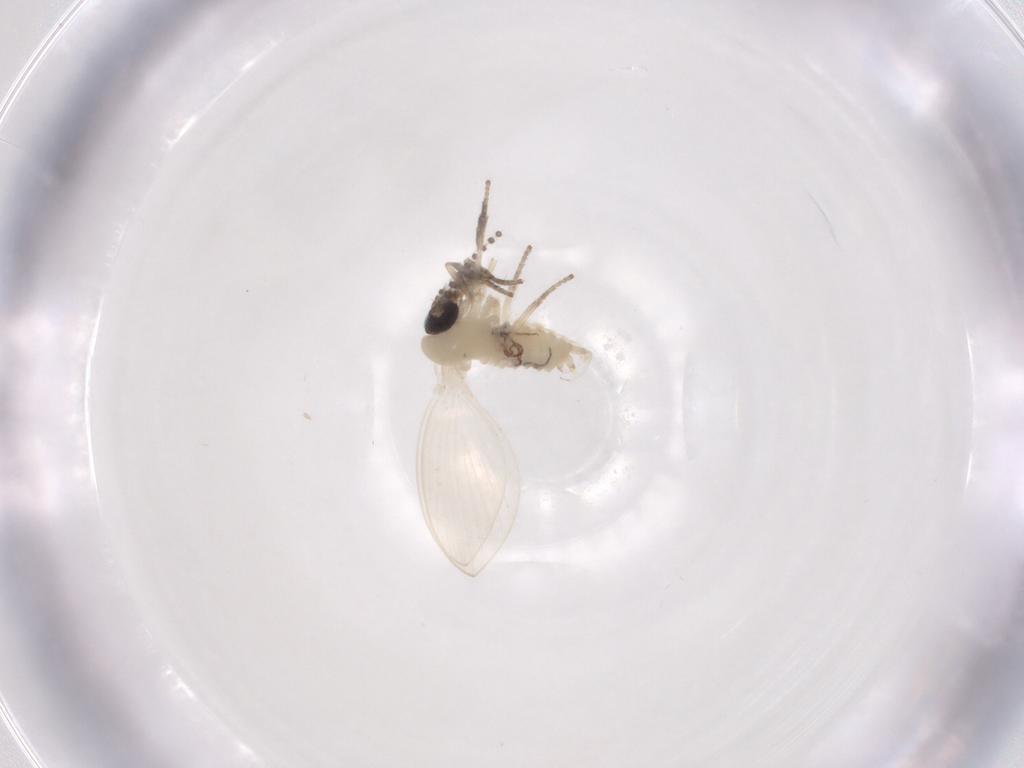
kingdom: Animalia
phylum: Arthropoda
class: Insecta
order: Diptera
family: Psychodidae
